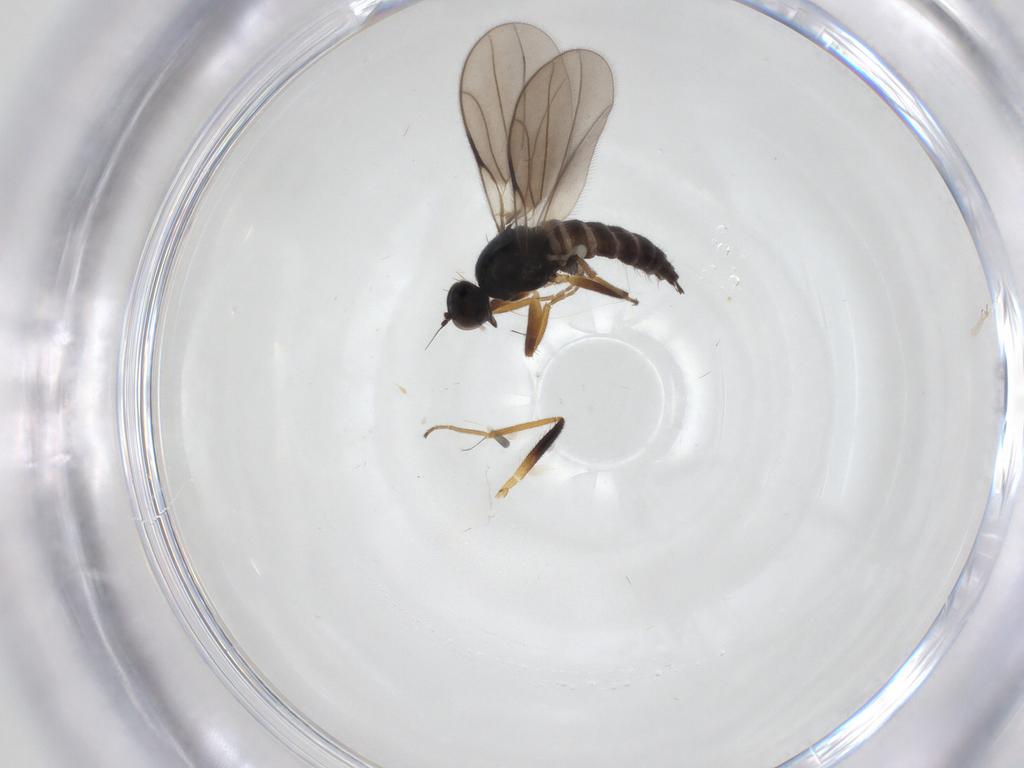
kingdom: Animalia
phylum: Arthropoda
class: Insecta
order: Diptera
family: Hybotidae
